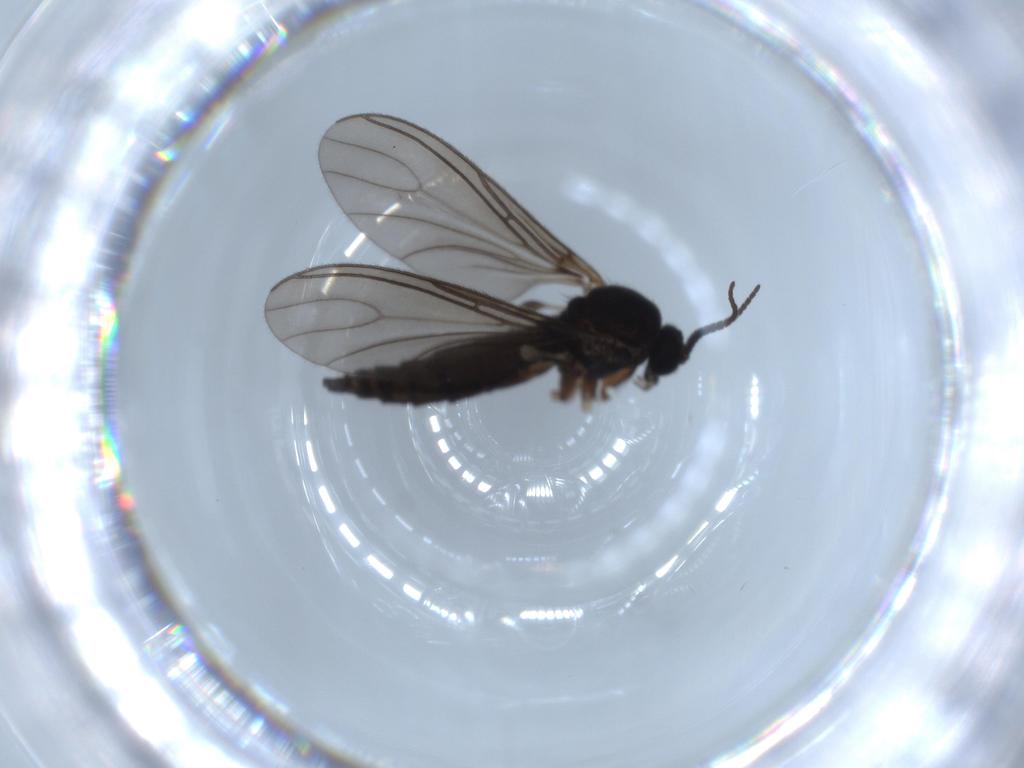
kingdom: Animalia
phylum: Arthropoda
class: Insecta
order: Diptera
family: Sciaridae
